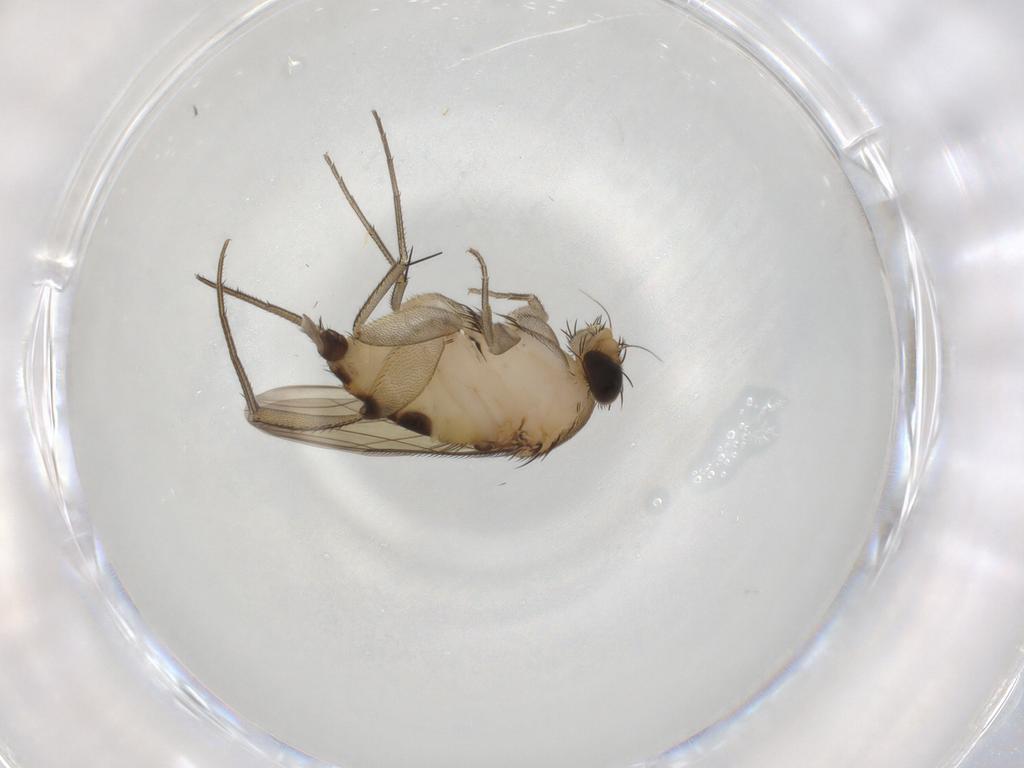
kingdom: Animalia
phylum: Arthropoda
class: Insecta
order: Diptera
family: Phoridae
